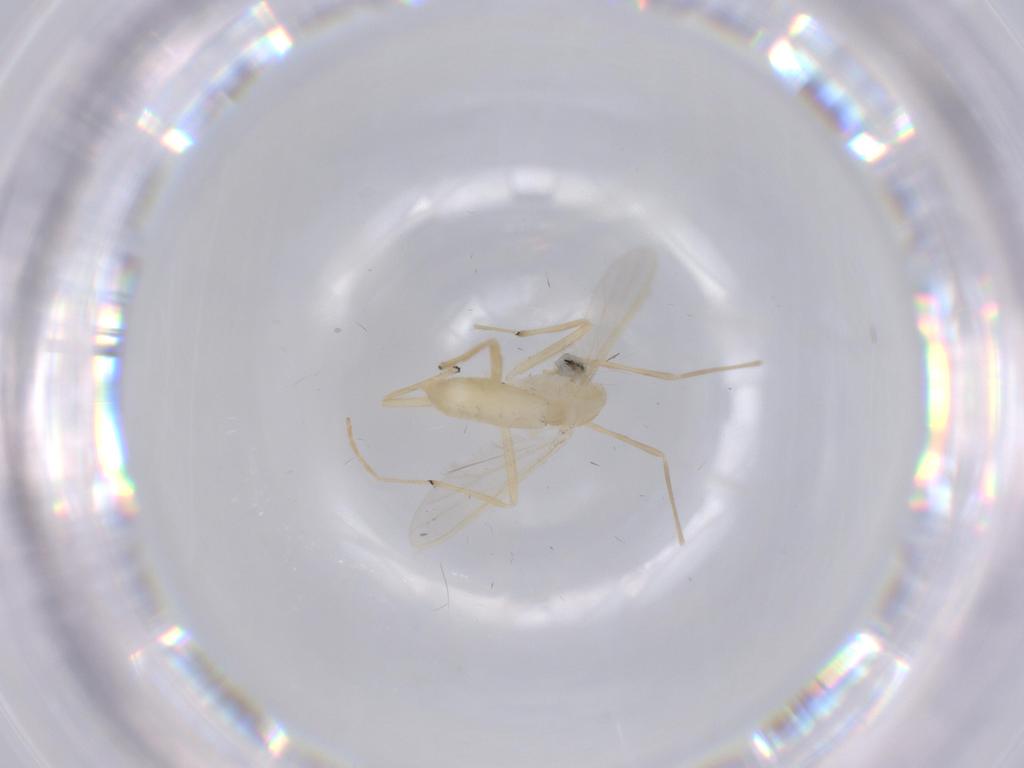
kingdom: Animalia
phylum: Arthropoda
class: Insecta
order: Diptera
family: Chironomidae
